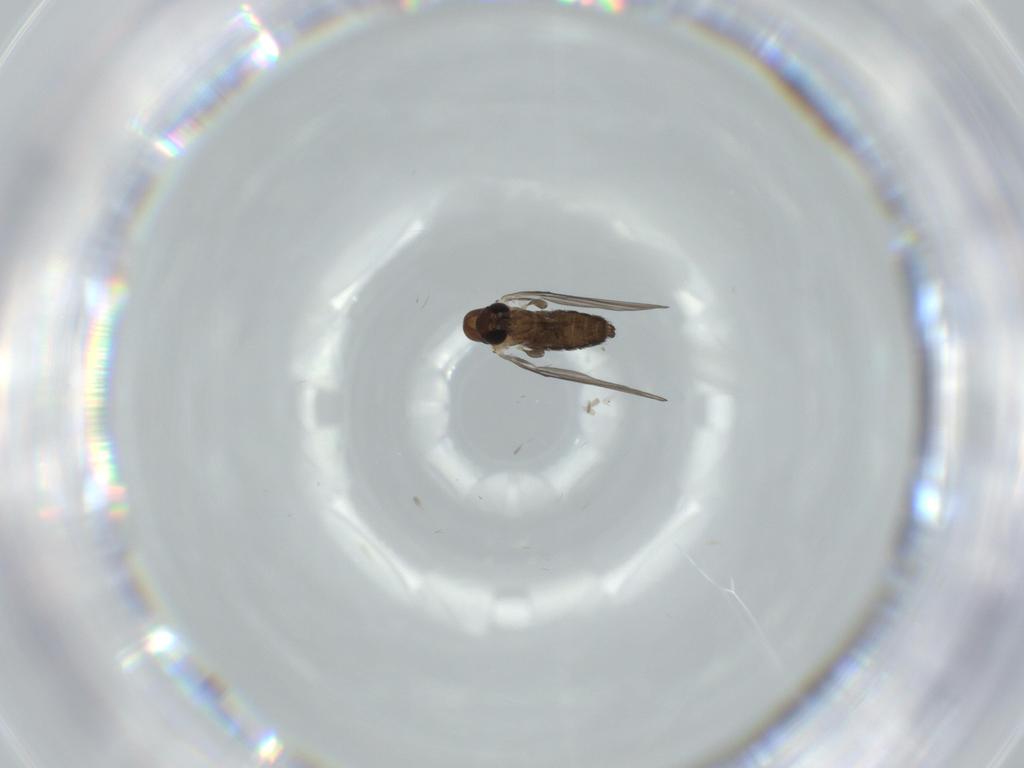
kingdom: Animalia
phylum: Arthropoda
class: Insecta
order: Diptera
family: Psychodidae
